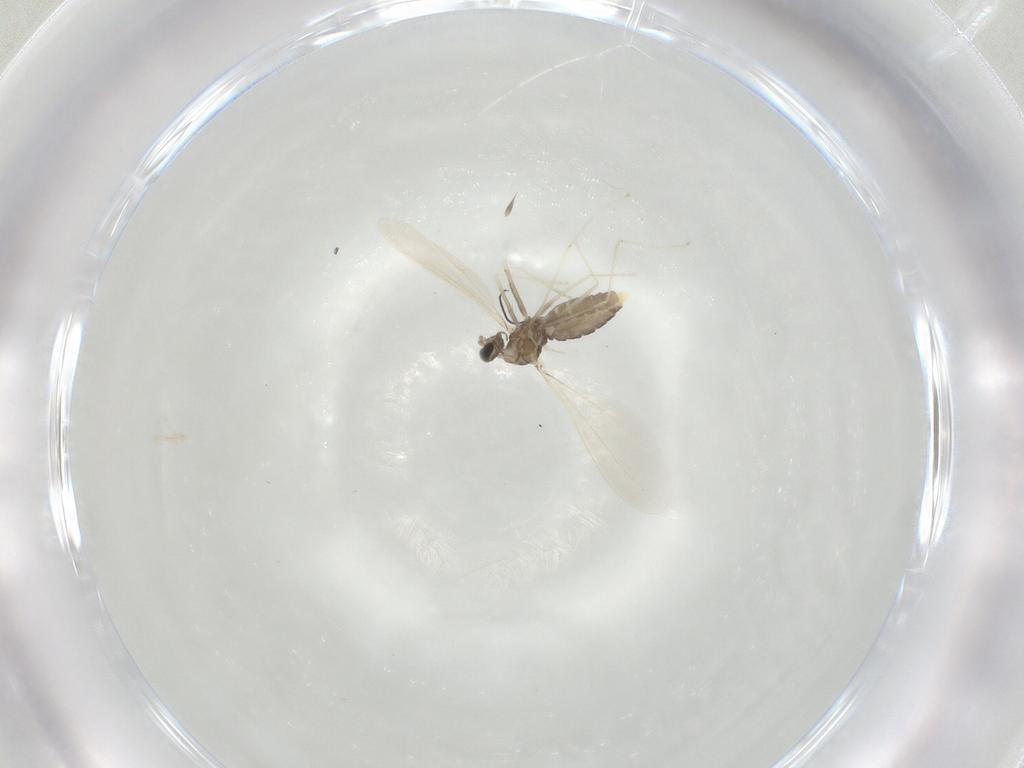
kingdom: Animalia
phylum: Arthropoda
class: Insecta
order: Diptera
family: Cecidomyiidae
